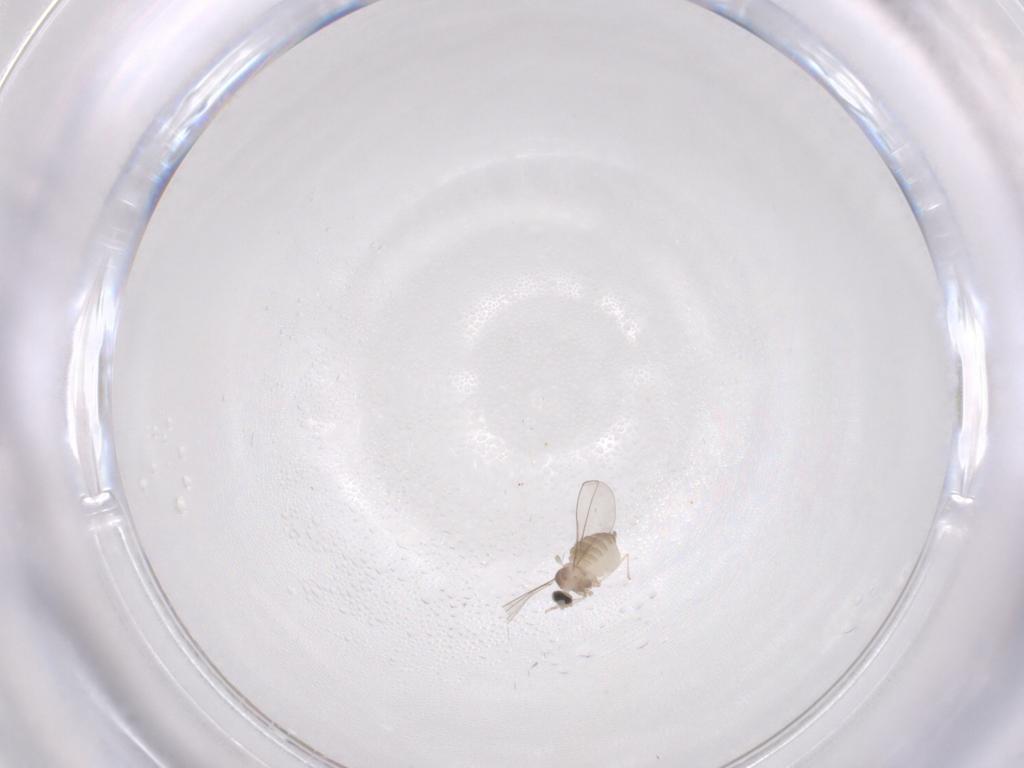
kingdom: Animalia
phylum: Arthropoda
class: Insecta
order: Diptera
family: Cecidomyiidae
